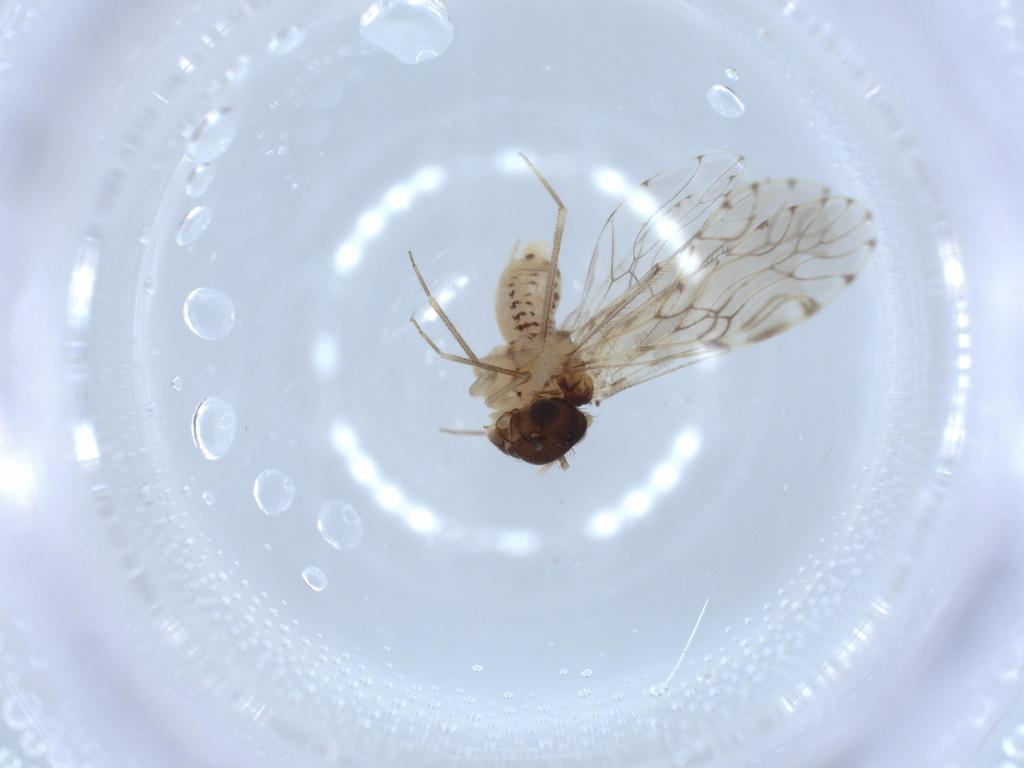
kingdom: Animalia
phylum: Arthropoda
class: Insecta
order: Psocodea
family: Epipsocidae
